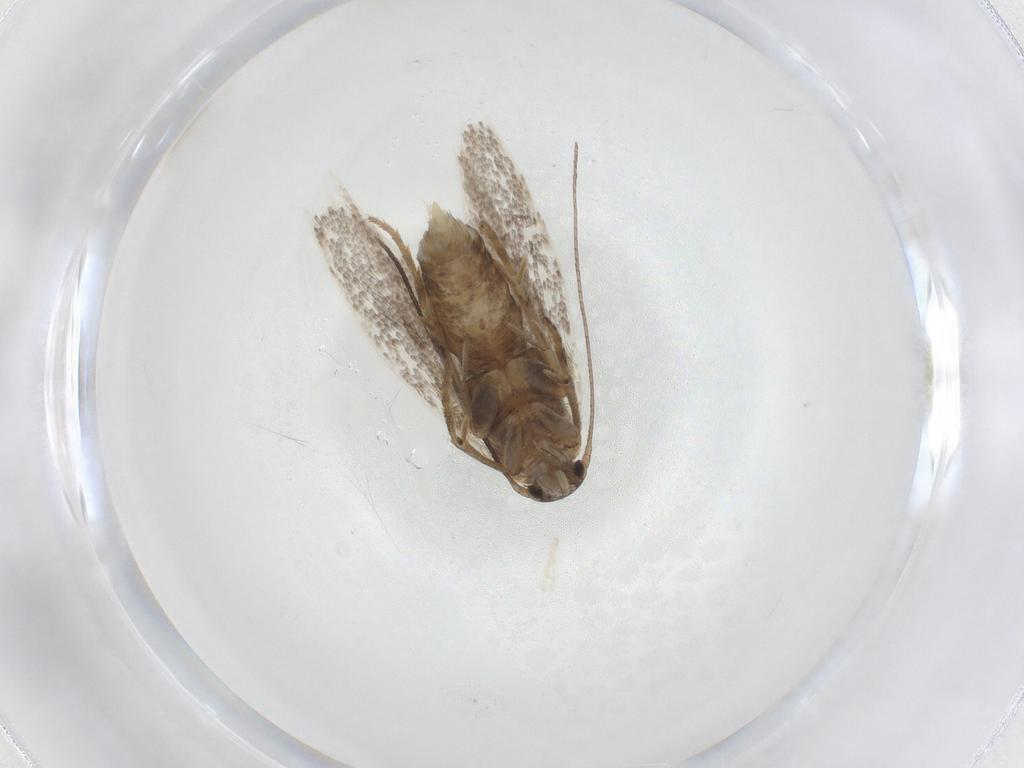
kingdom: Animalia
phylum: Arthropoda
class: Insecta
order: Lepidoptera
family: Elachistidae
